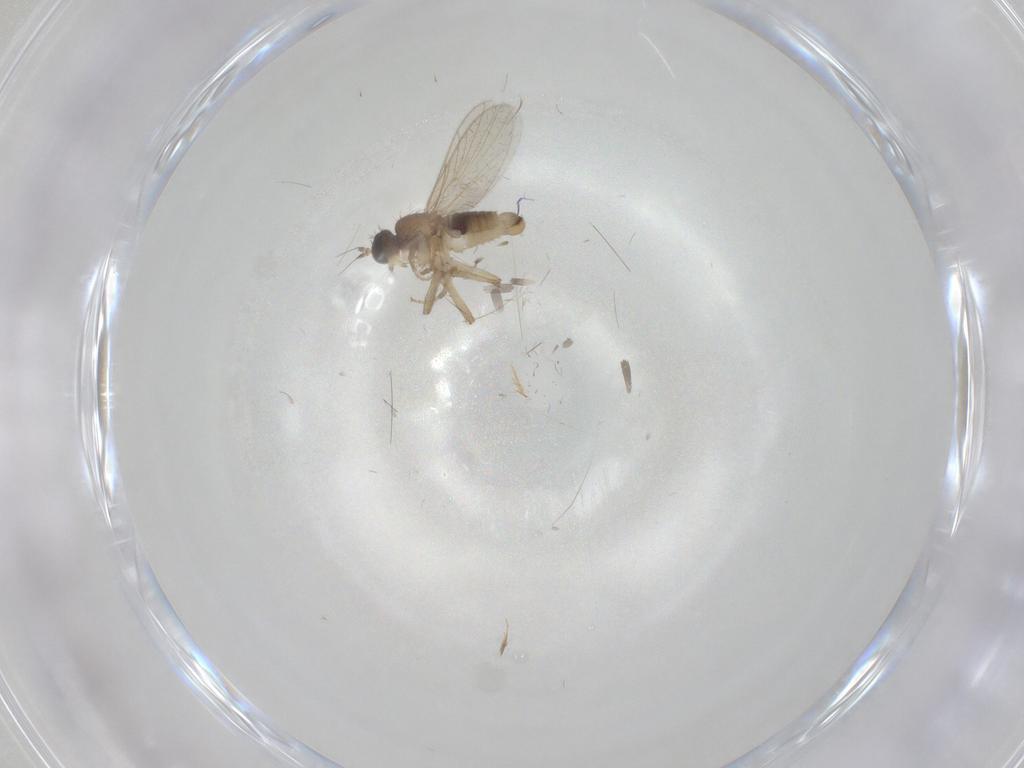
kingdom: Animalia
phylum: Arthropoda
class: Insecta
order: Diptera
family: Hybotidae
